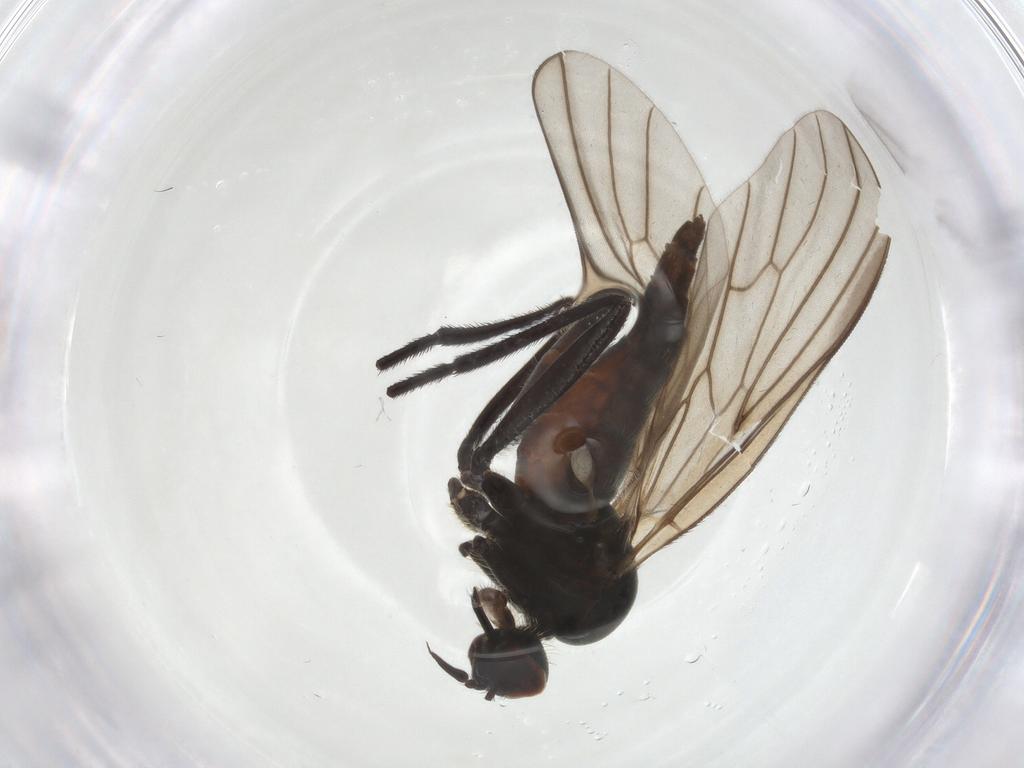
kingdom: Animalia
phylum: Arthropoda
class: Insecta
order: Diptera
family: Empididae
